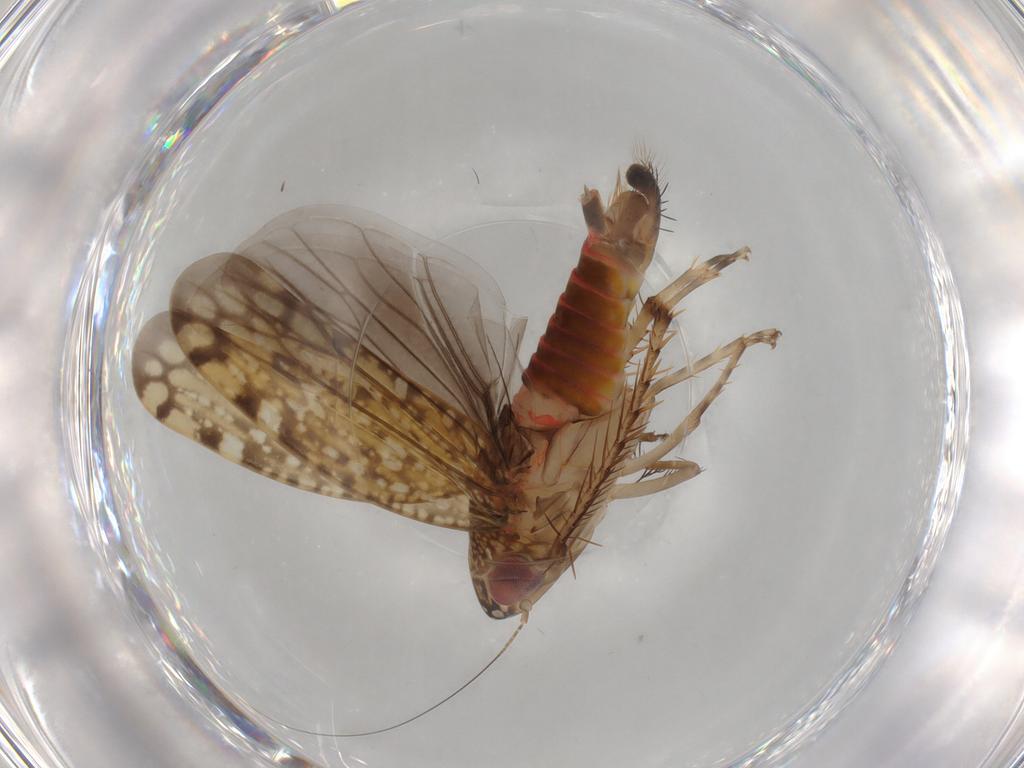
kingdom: Animalia
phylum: Arthropoda
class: Insecta
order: Hemiptera
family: Cicadellidae
